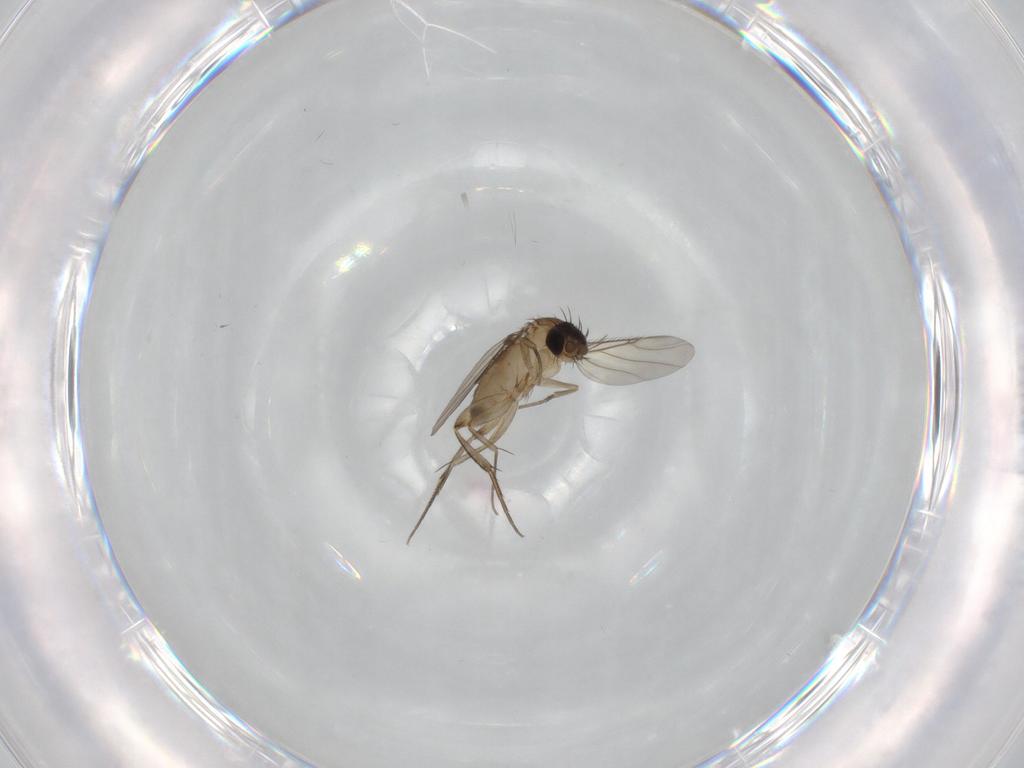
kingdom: Animalia
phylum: Arthropoda
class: Insecta
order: Diptera
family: Phoridae
